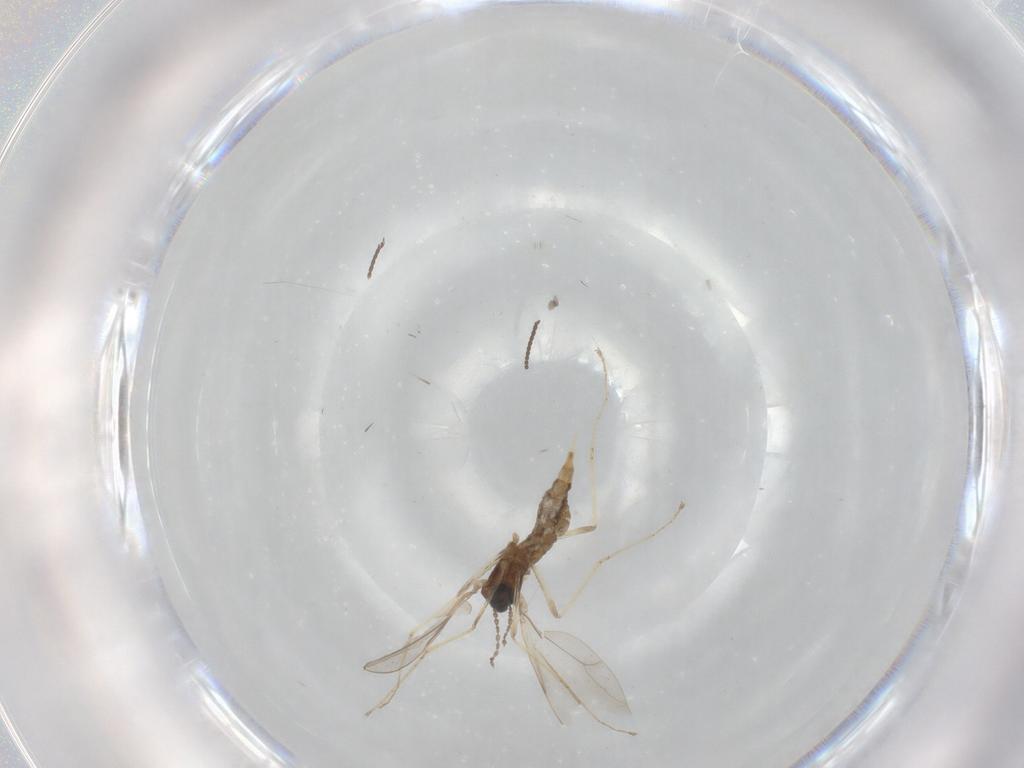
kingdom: Animalia
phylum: Arthropoda
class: Insecta
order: Diptera
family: Cecidomyiidae
